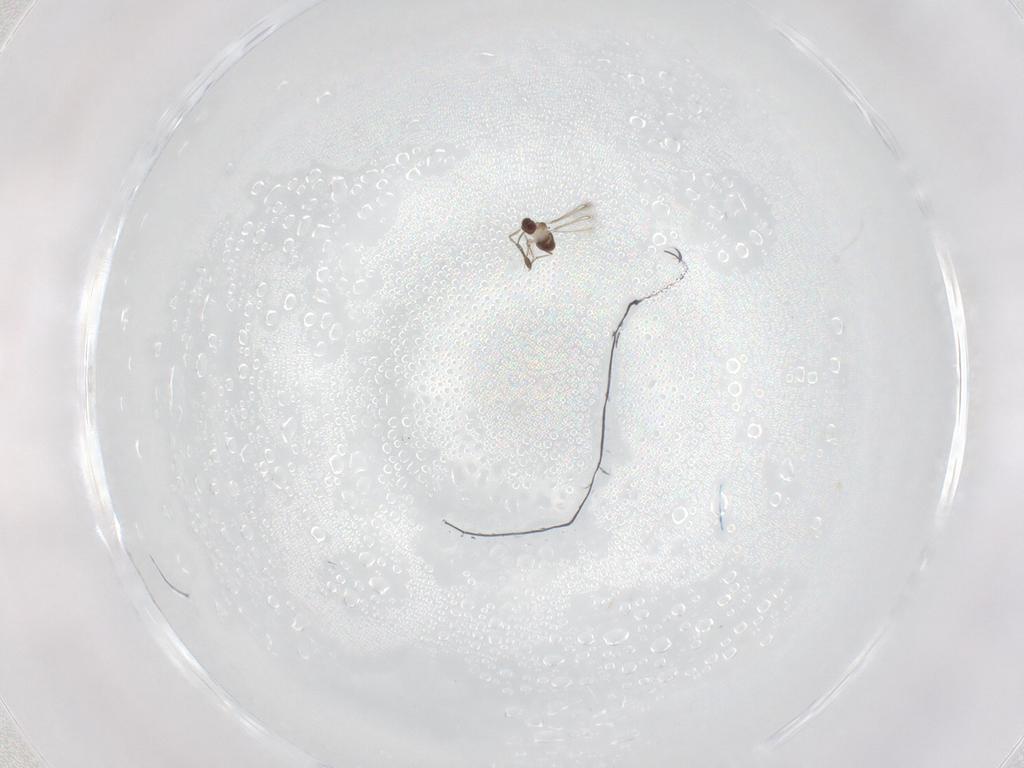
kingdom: Animalia
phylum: Arthropoda
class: Insecta
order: Hymenoptera
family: Mymaridae
